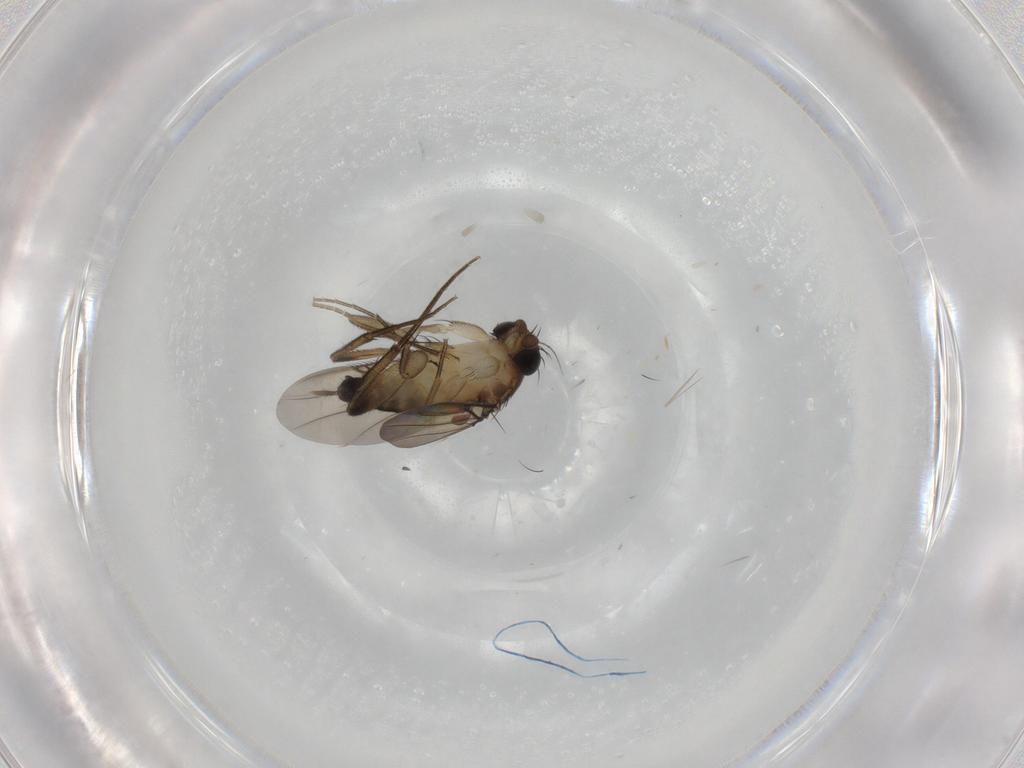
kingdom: Animalia
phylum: Arthropoda
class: Insecta
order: Diptera
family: Phoridae
